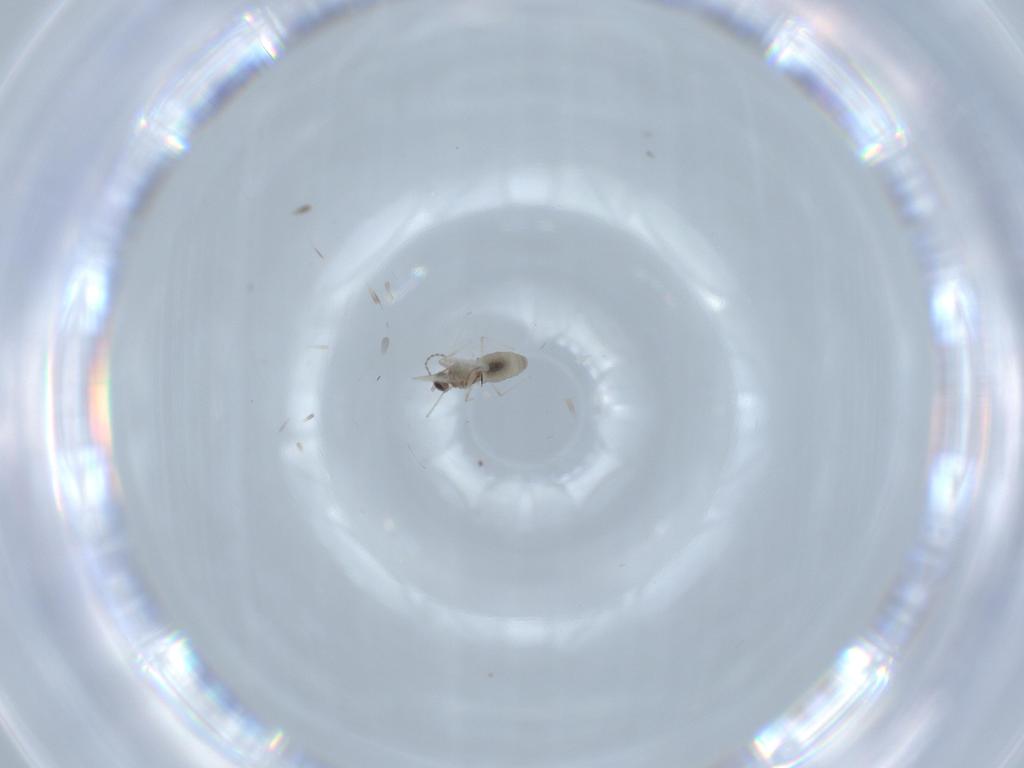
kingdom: Animalia
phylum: Arthropoda
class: Insecta
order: Diptera
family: Cecidomyiidae
